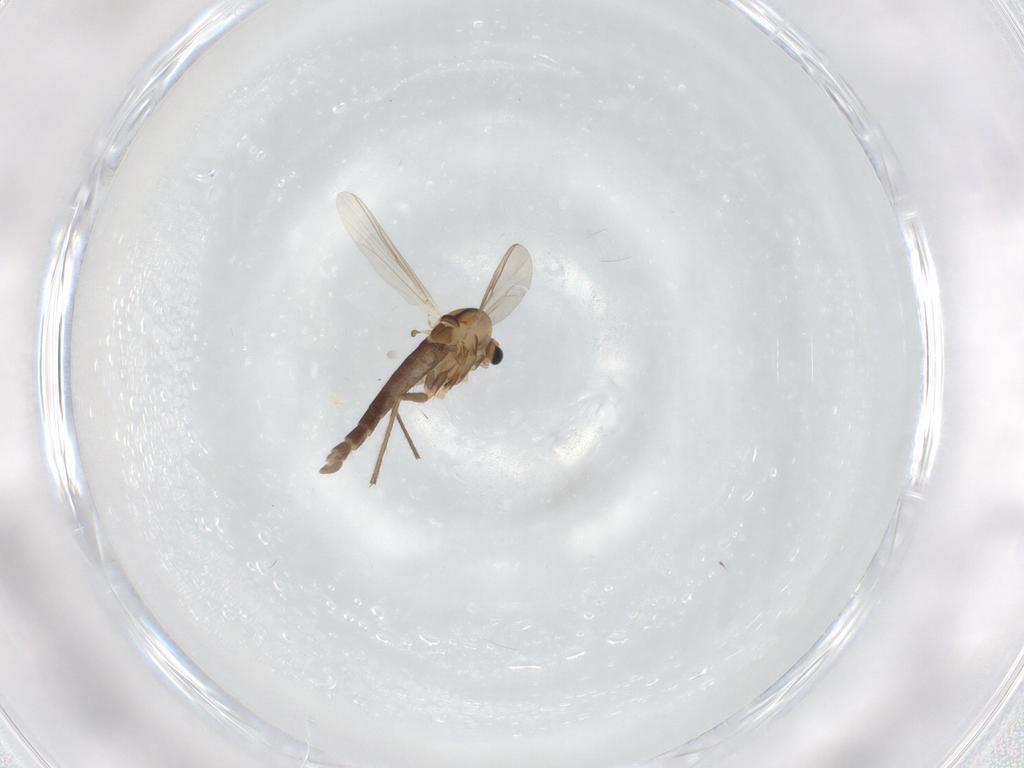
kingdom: Animalia
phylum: Arthropoda
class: Insecta
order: Diptera
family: Chironomidae
